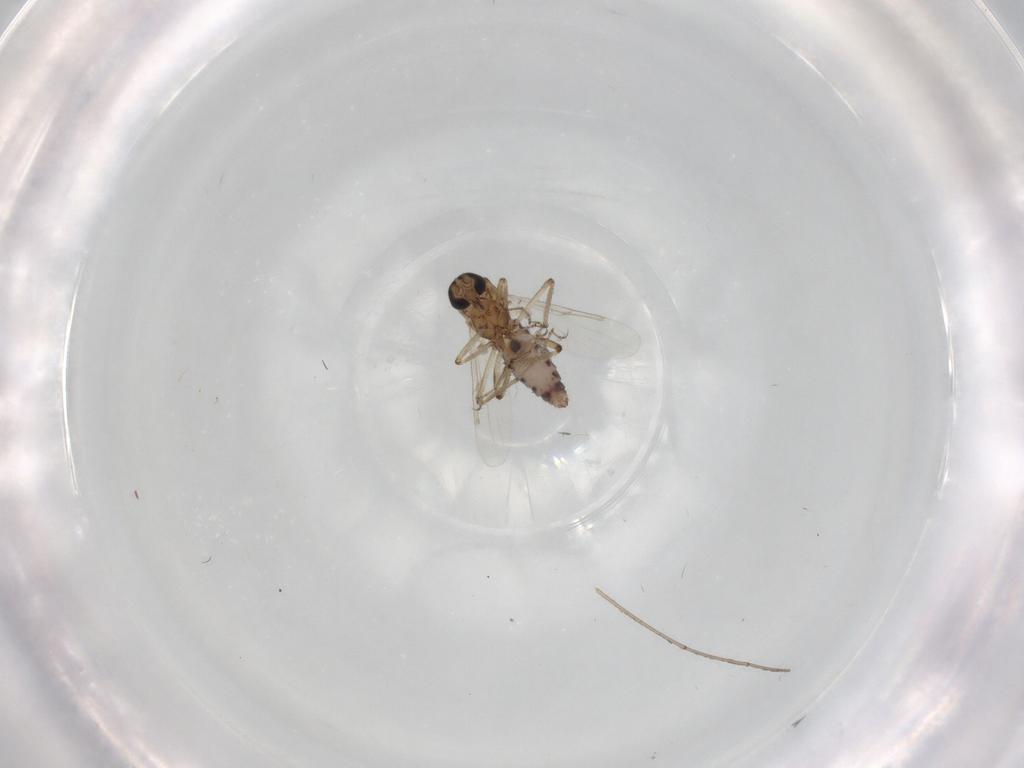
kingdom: Animalia
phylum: Arthropoda
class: Insecta
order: Diptera
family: Ceratopogonidae
